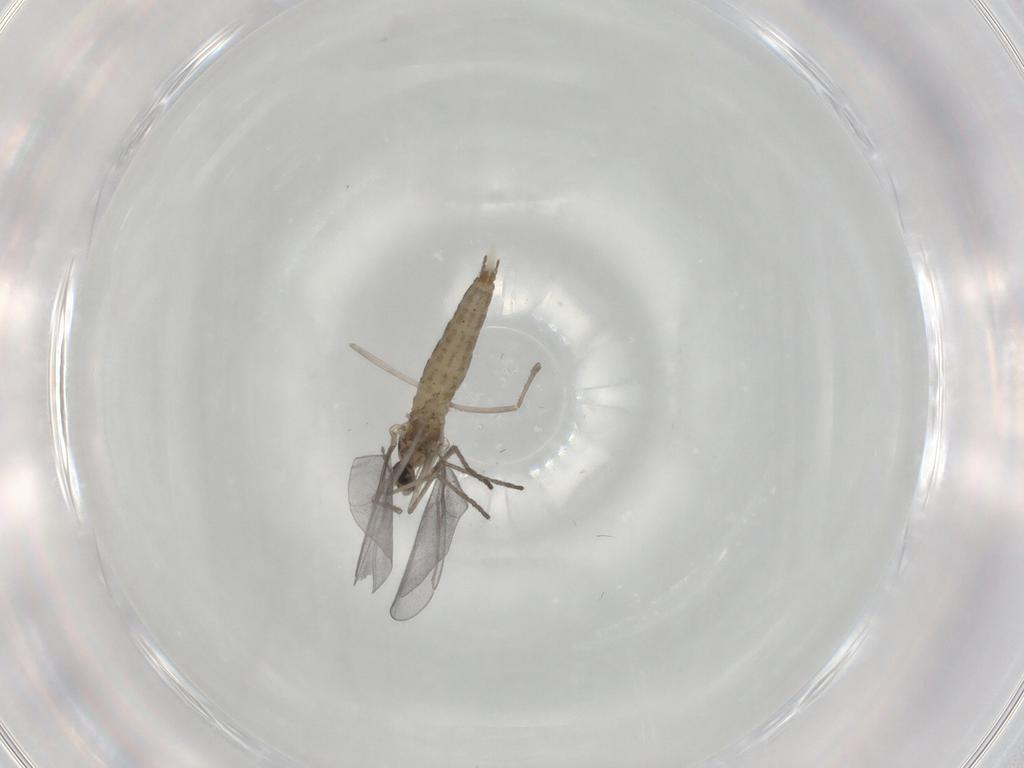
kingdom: Animalia
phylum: Arthropoda
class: Insecta
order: Diptera
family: Cecidomyiidae
